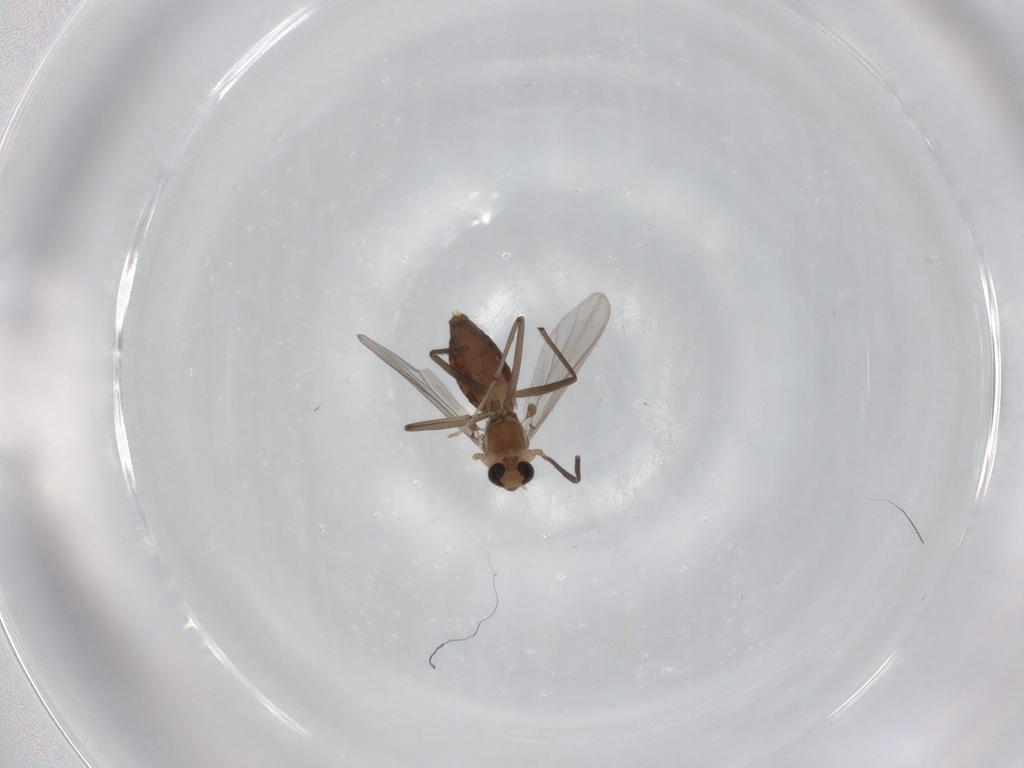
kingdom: Animalia
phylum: Arthropoda
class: Insecta
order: Diptera
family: Chironomidae
